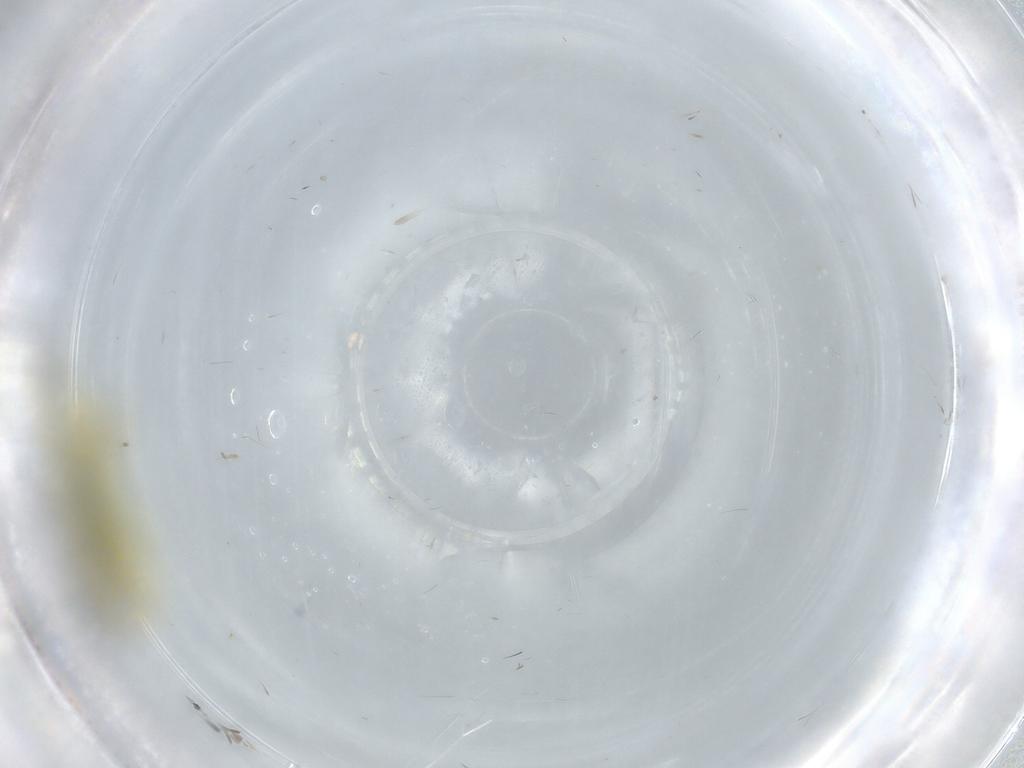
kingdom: Animalia
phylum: Arthropoda
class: Insecta
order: Hemiptera
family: Cicadellidae
